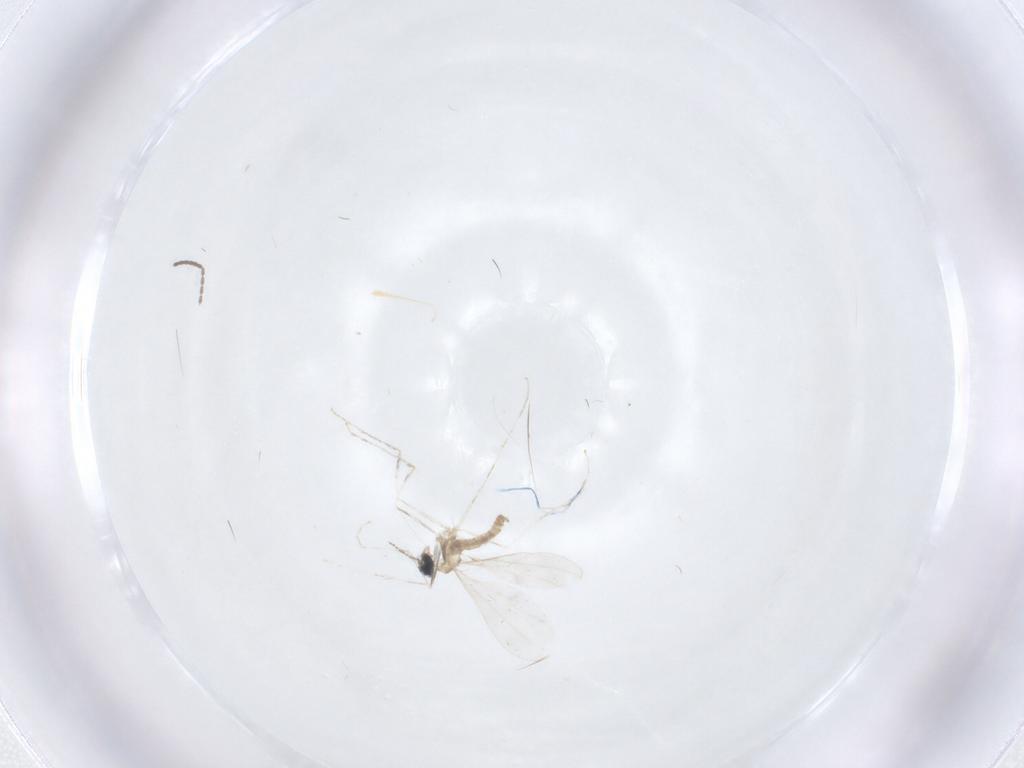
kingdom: Animalia
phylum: Arthropoda
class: Insecta
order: Diptera
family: Cecidomyiidae
